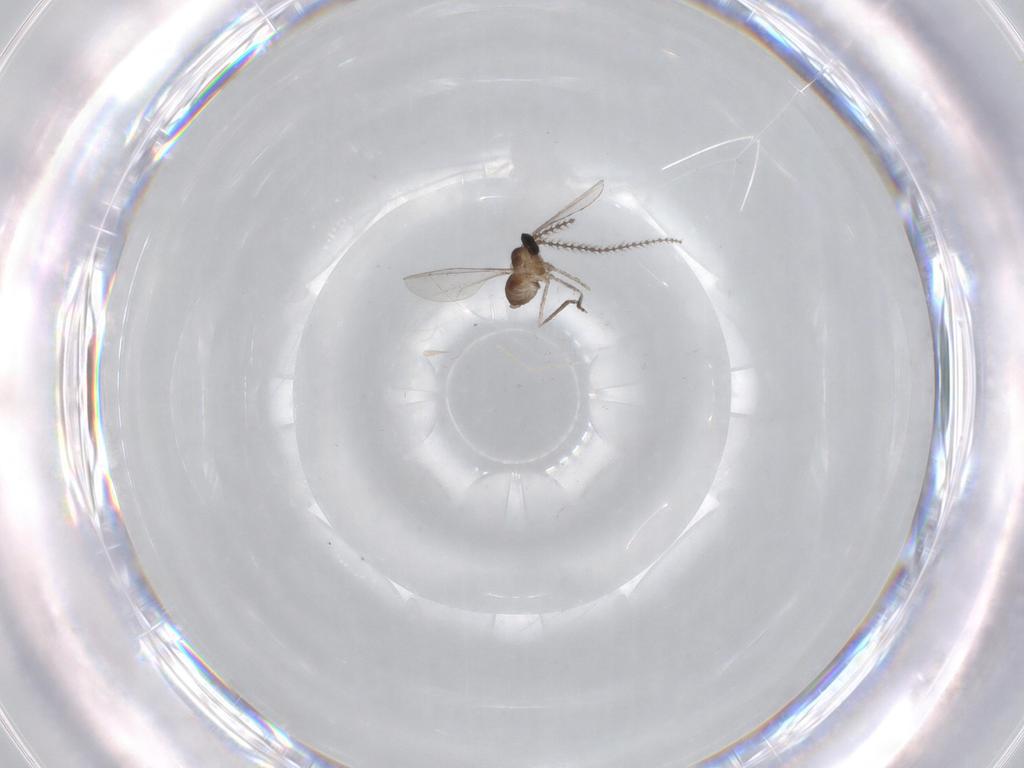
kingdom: Animalia
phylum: Arthropoda
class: Insecta
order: Diptera
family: Cecidomyiidae
